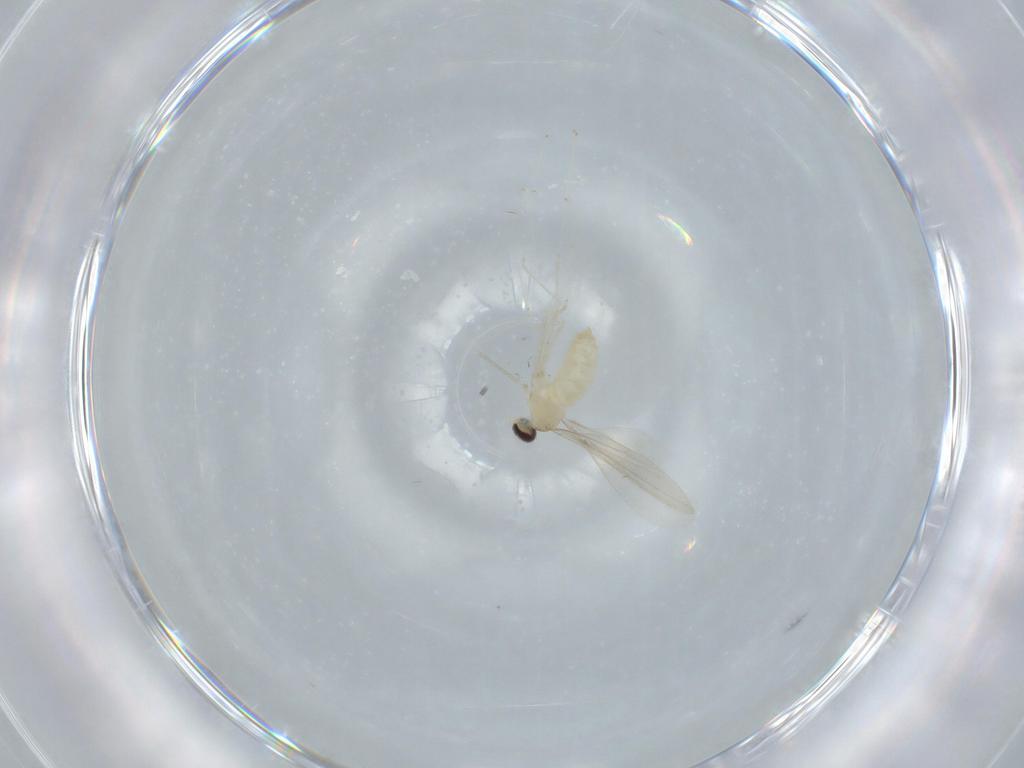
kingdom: Animalia
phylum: Arthropoda
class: Insecta
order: Diptera
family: Cecidomyiidae
